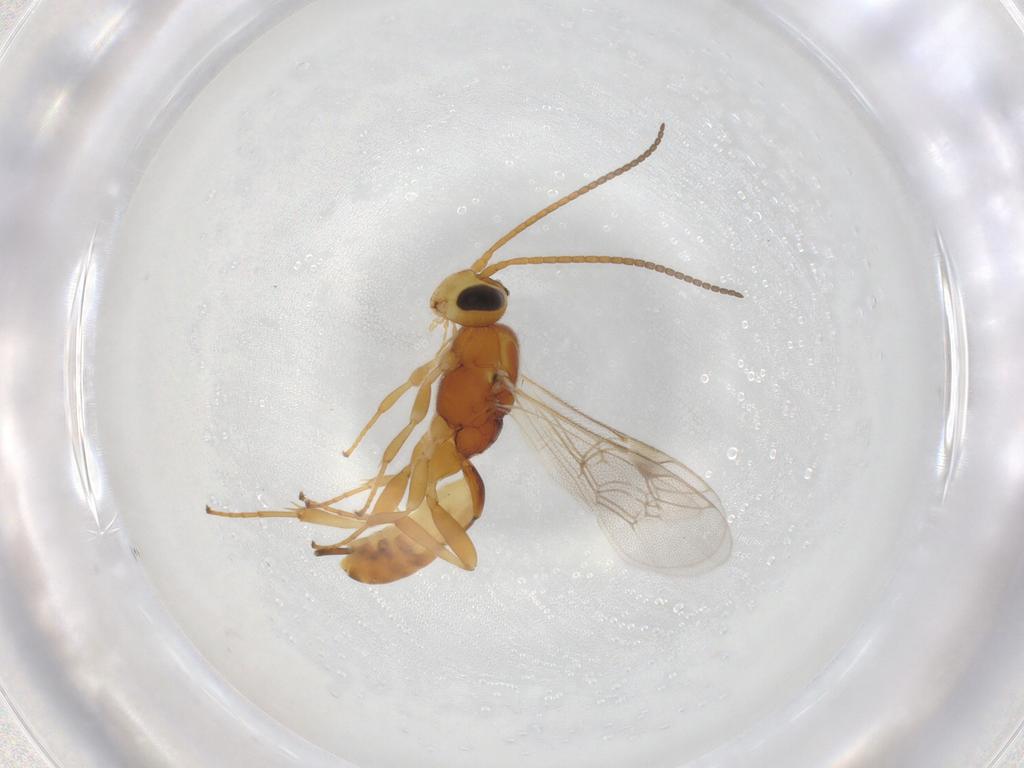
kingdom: Animalia
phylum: Arthropoda
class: Insecta
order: Hymenoptera
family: Ichneumonidae
